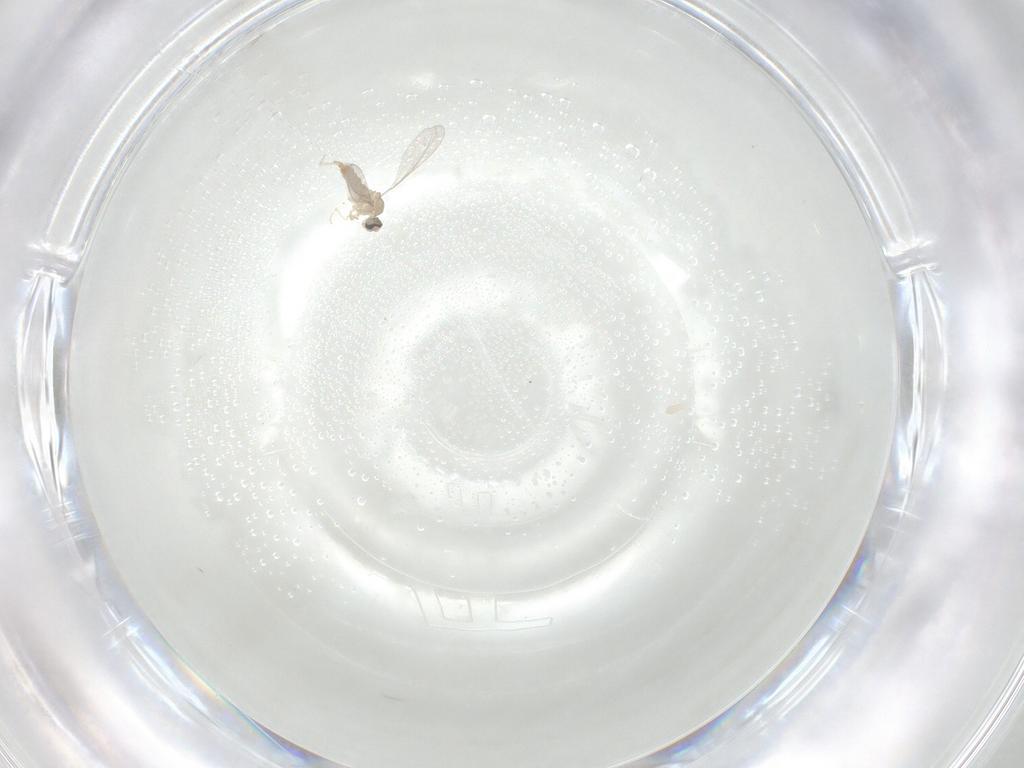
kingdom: Animalia
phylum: Arthropoda
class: Insecta
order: Diptera
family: Cecidomyiidae
